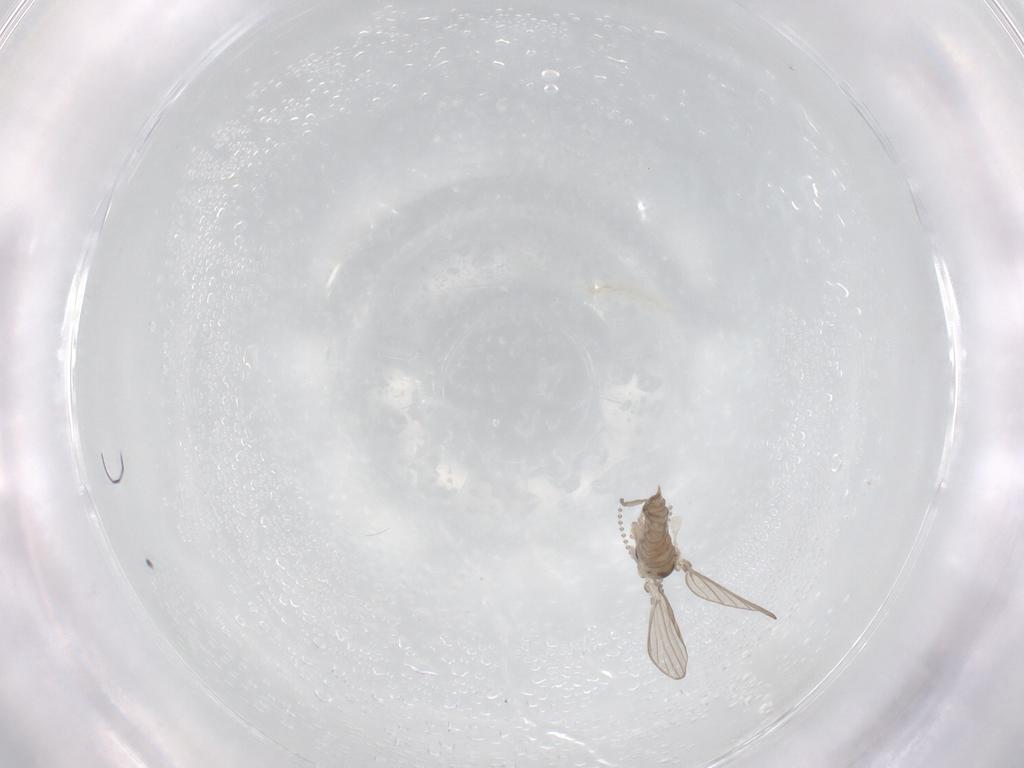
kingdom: Animalia
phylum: Arthropoda
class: Insecta
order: Diptera
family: Psychodidae
